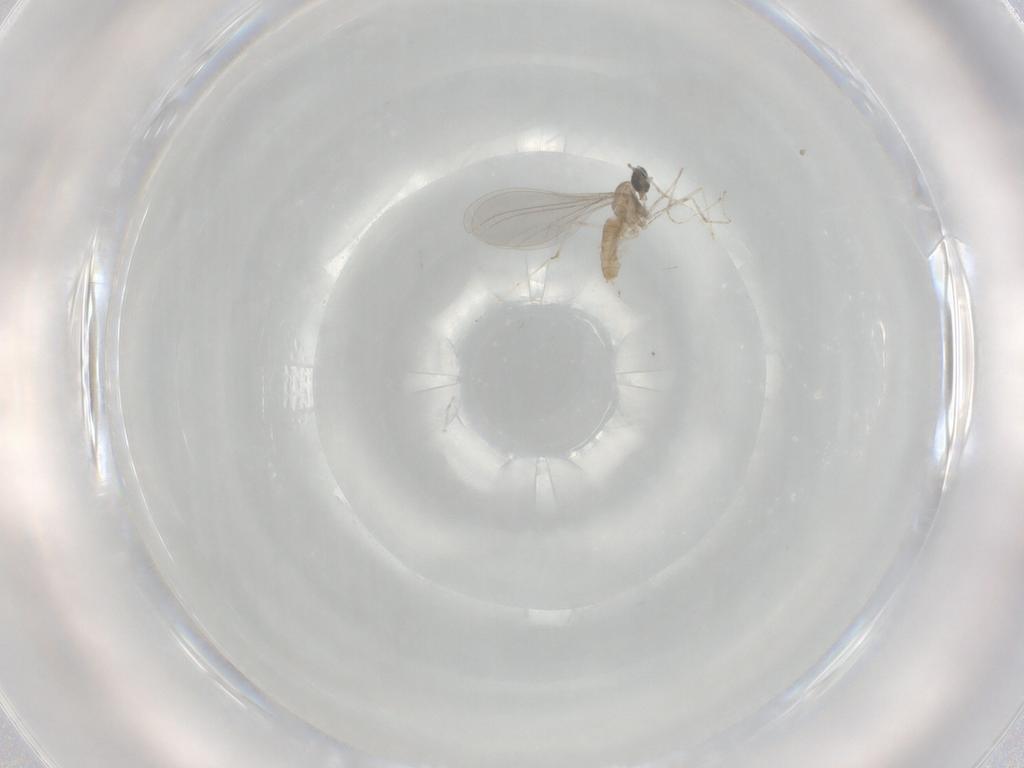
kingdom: Animalia
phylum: Arthropoda
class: Insecta
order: Diptera
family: Cecidomyiidae
